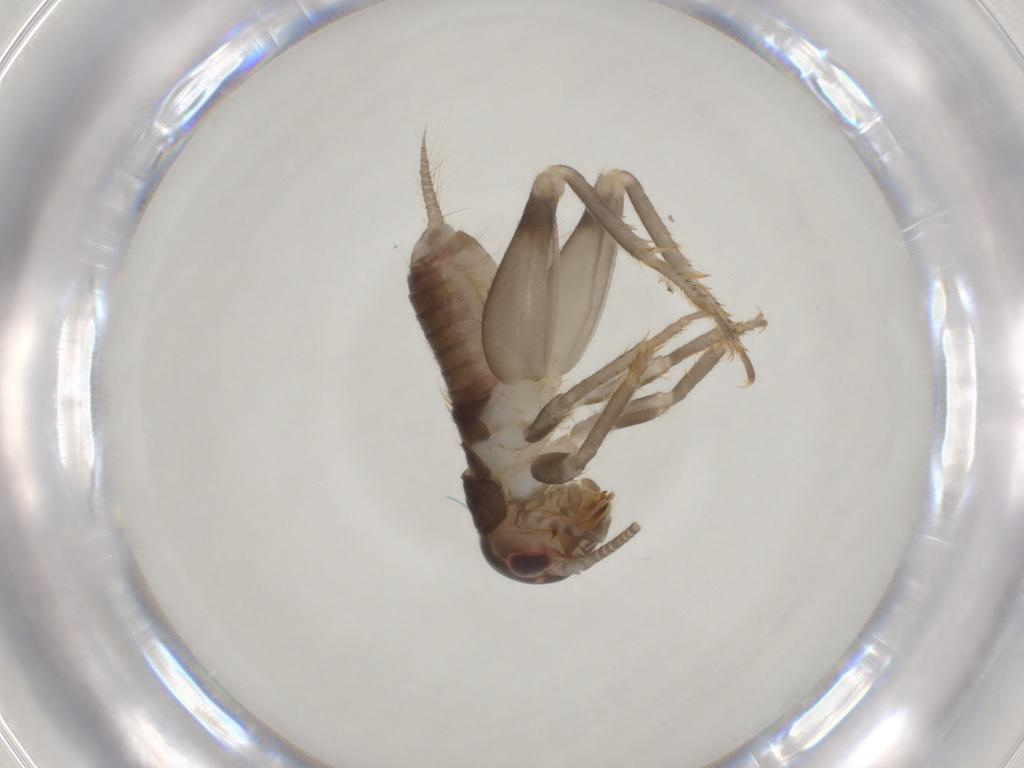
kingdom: Animalia
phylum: Arthropoda
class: Insecta
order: Orthoptera
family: Gryllidae
